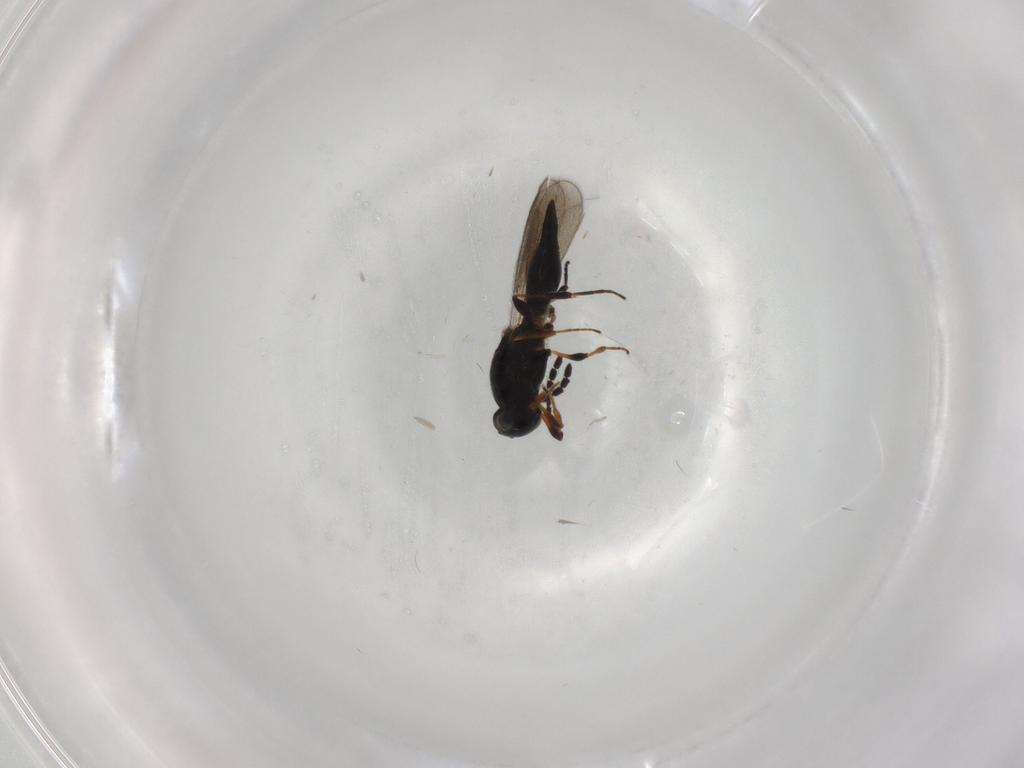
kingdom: Animalia
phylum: Arthropoda
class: Insecta
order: Hymenoptera
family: Platygastridae
